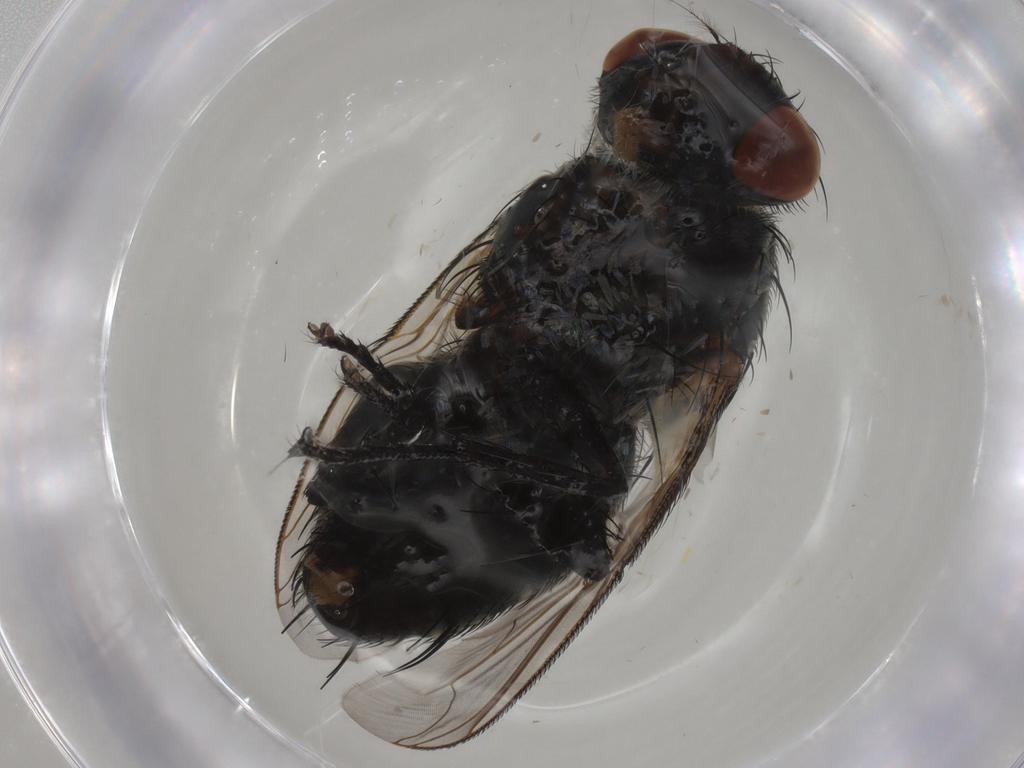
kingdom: Animalia
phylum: Arthropoda
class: Insecta
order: Diptera
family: Sarcophagidae
